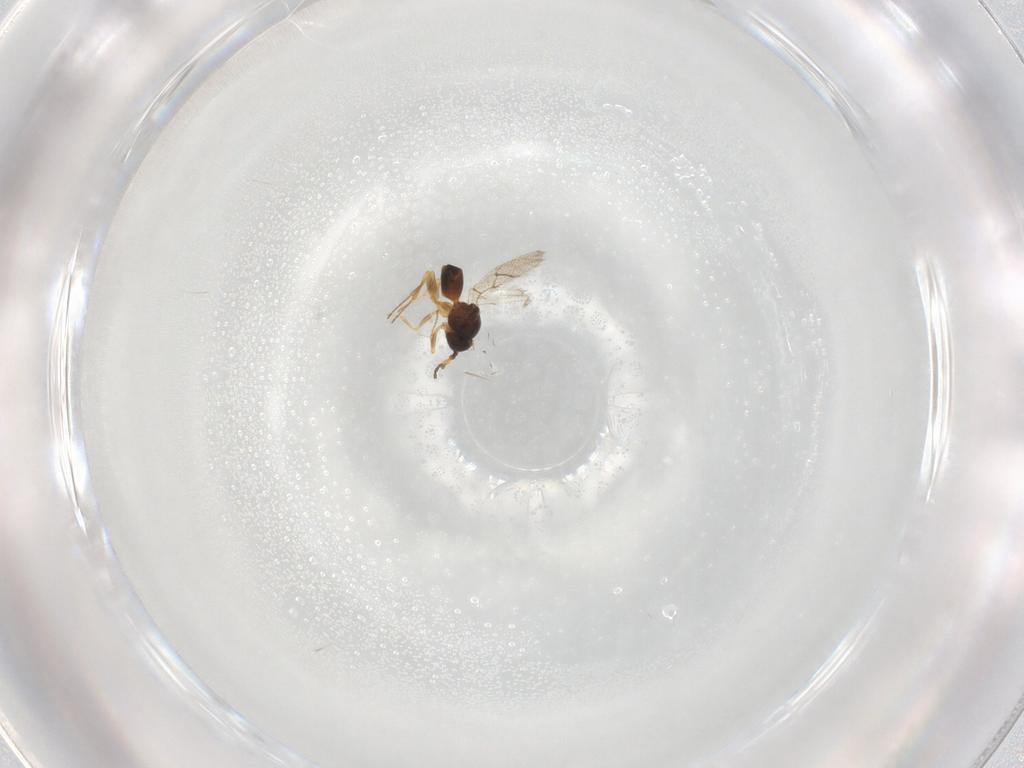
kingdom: Animalia
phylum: Arthropoda
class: Insecta
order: Hymenoptera
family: Figitidae
